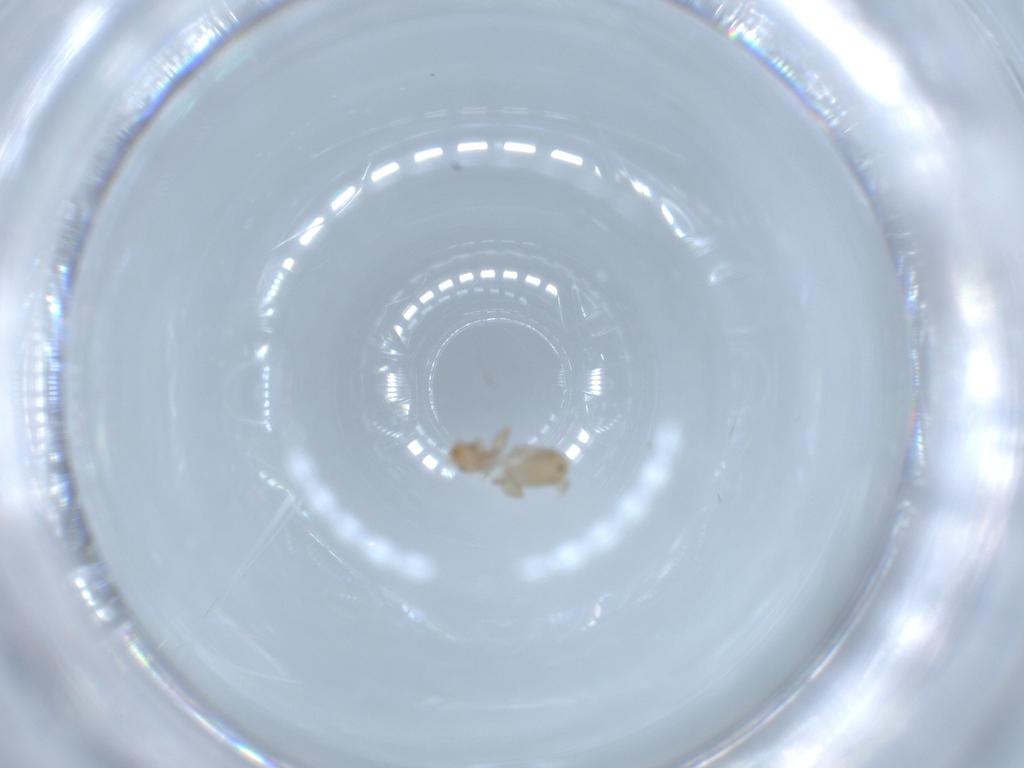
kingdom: Animalia
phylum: Arthropoda
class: Insecta
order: Psocodea
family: Liposcelididae
